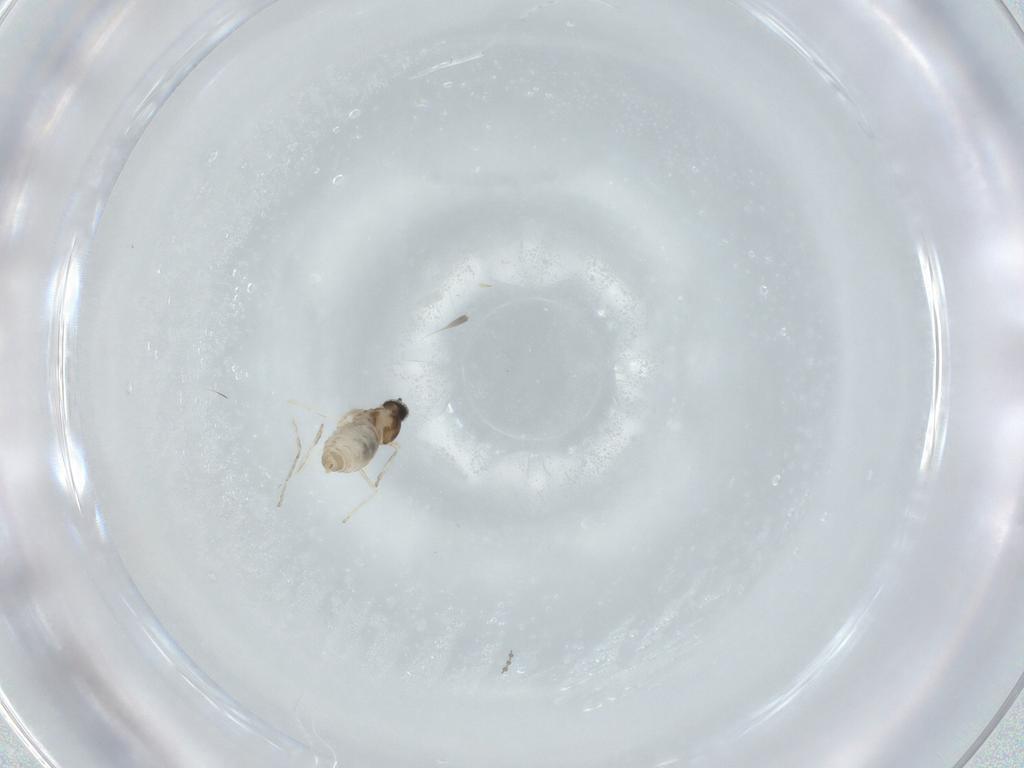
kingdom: Animalia
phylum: Arthropoda
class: Insecta
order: Diptera
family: Cecidomyiidae
